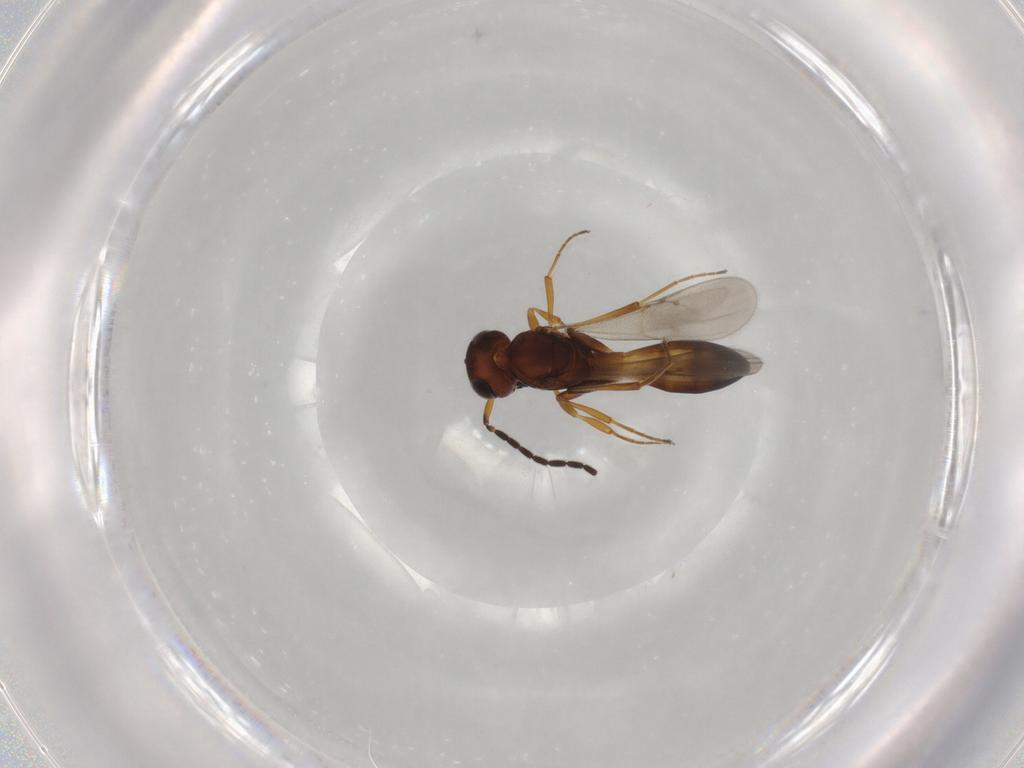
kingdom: Animalia
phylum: Arthropoda
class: Insecta
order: Hymenoptera
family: Scelionidae
